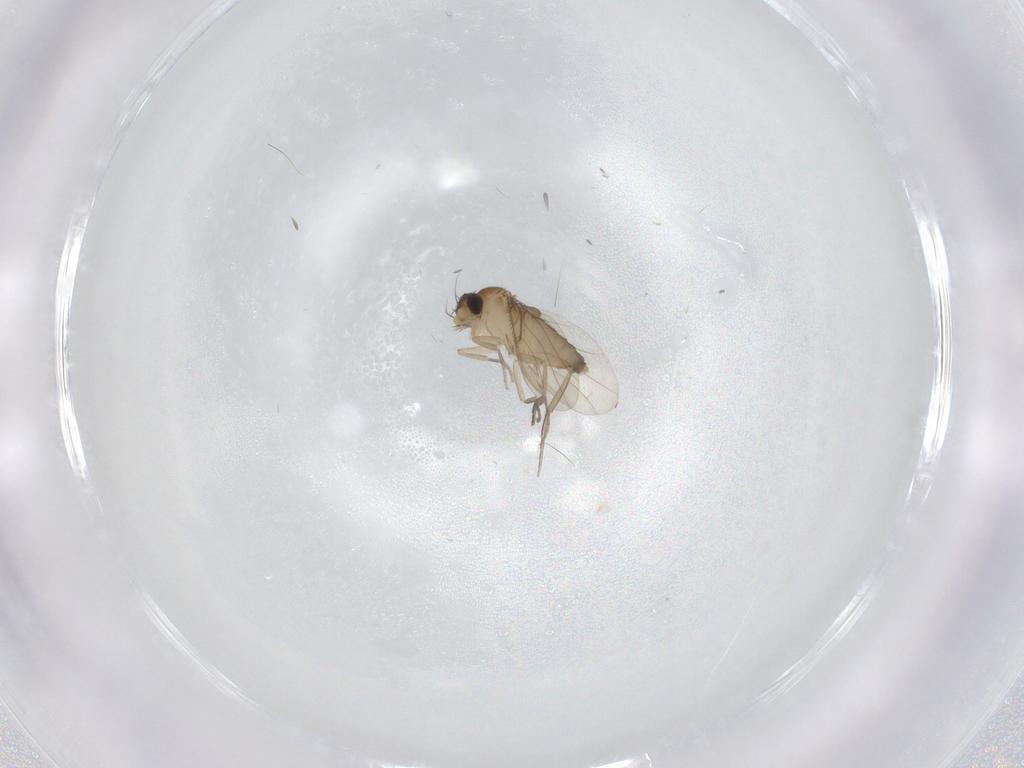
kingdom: Animalia
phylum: Arthropoda
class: Insecta
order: Diptera
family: Phoridae
